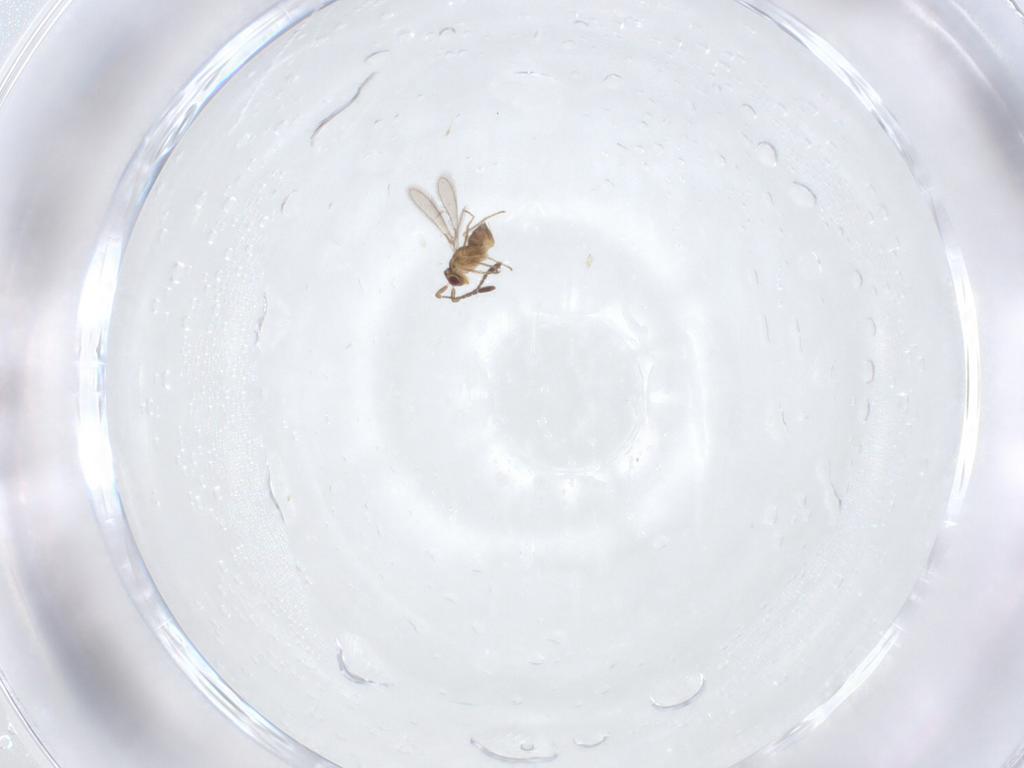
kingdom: Animalia
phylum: Arthropoda
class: Insecta
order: Hymenoptera
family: Mymaridae
